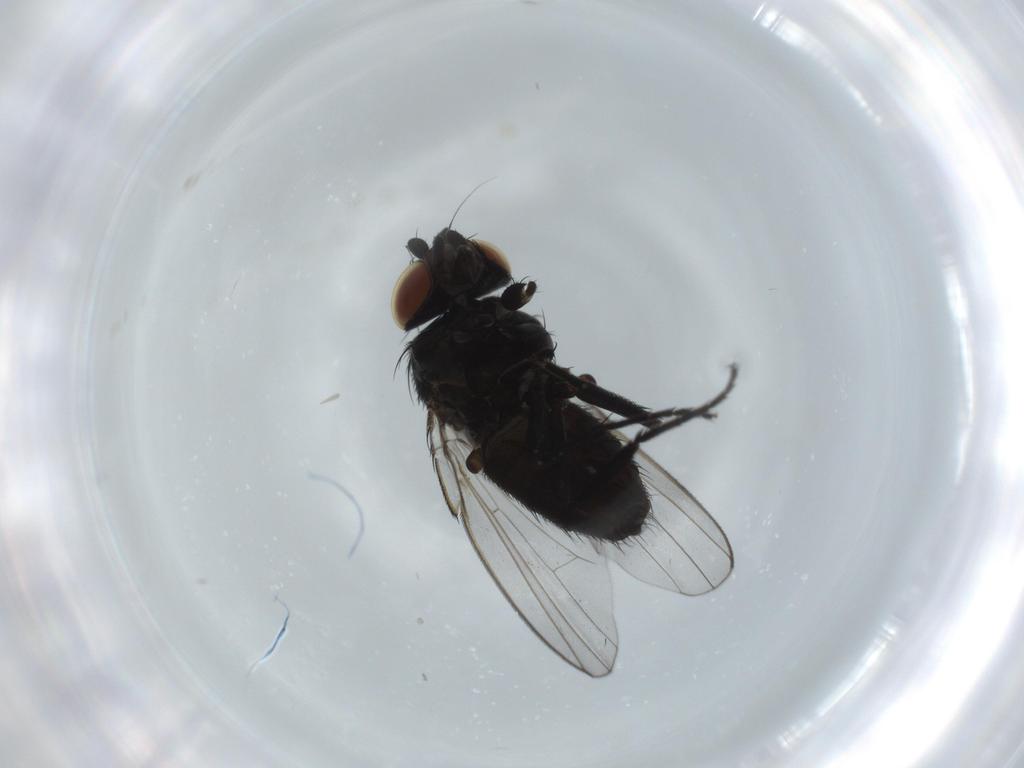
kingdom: Animalia
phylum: Arthropoda
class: Insecta
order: Diptera
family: Milichiidae
